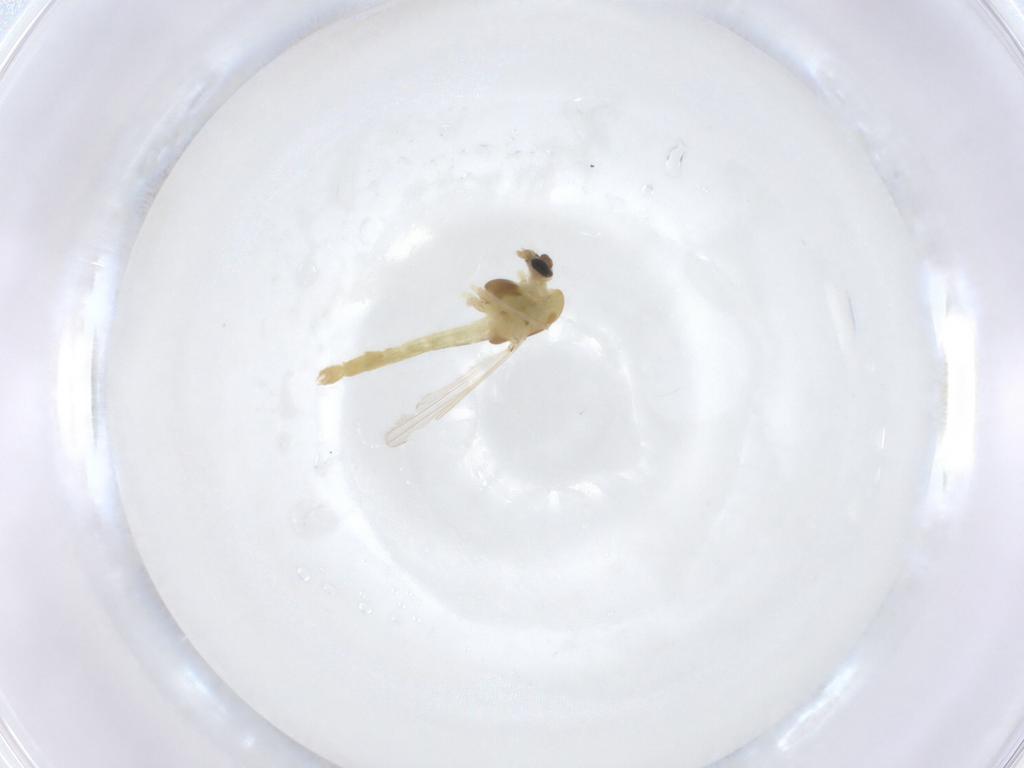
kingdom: Animalia
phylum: Arthropoda
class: Insecta
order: Diptera
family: Chironomidae
